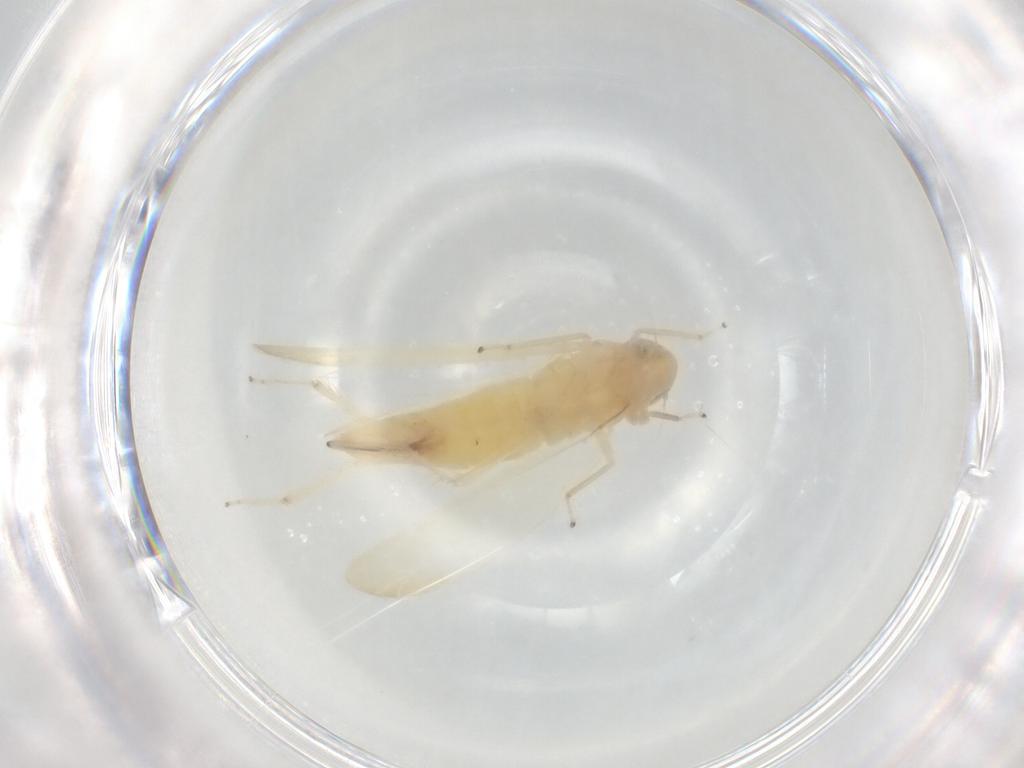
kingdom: Animalia
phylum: Arthropoda
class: Insecta
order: Hemiptera
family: Cicadellidae
